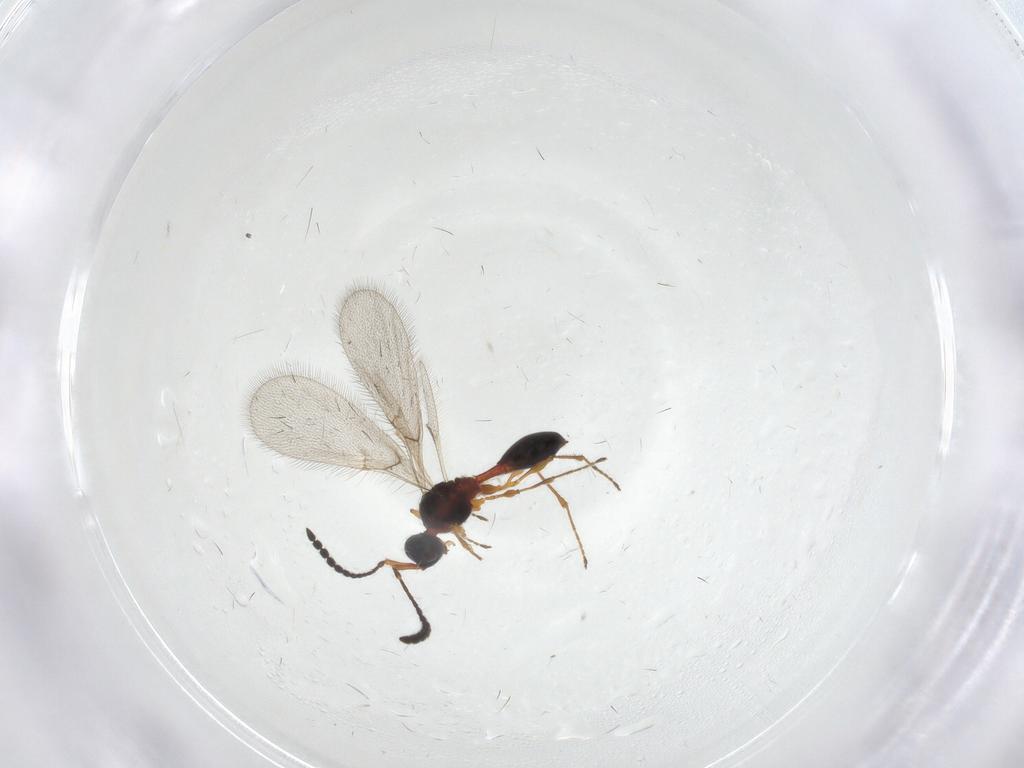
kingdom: Animalia
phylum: Arthropoda
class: Insecta
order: Hymenoptera
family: Diapriidae
